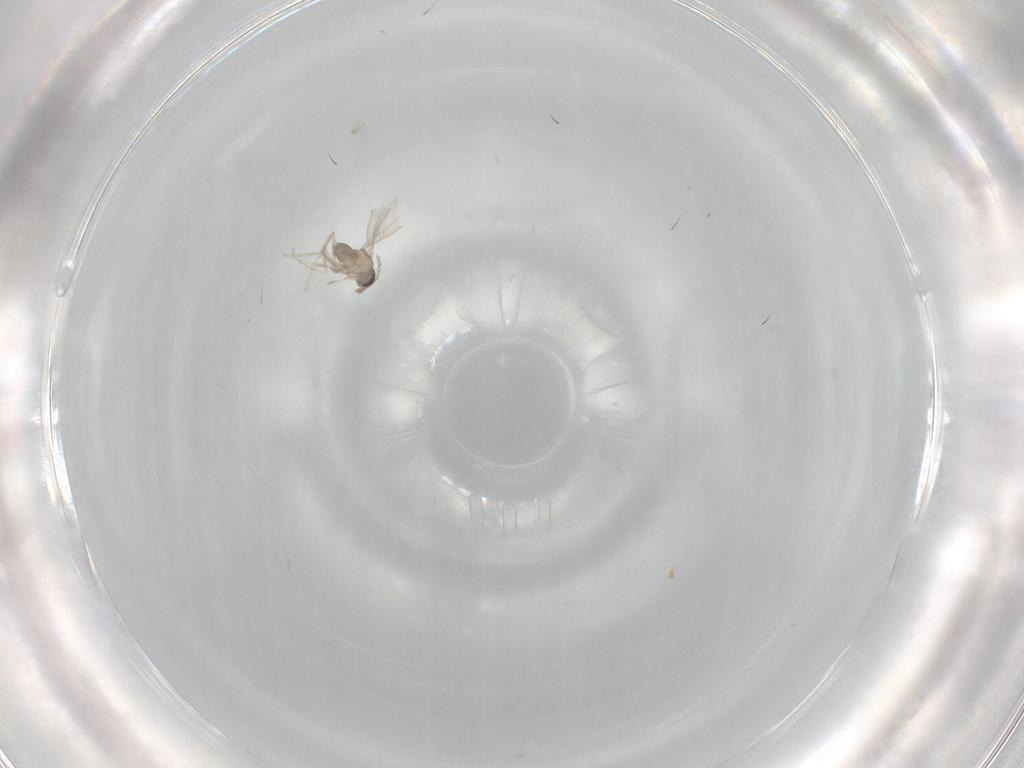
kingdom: Animalia
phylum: Arthropoda
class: Insecta
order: Diptera
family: Cecidomyiidae
